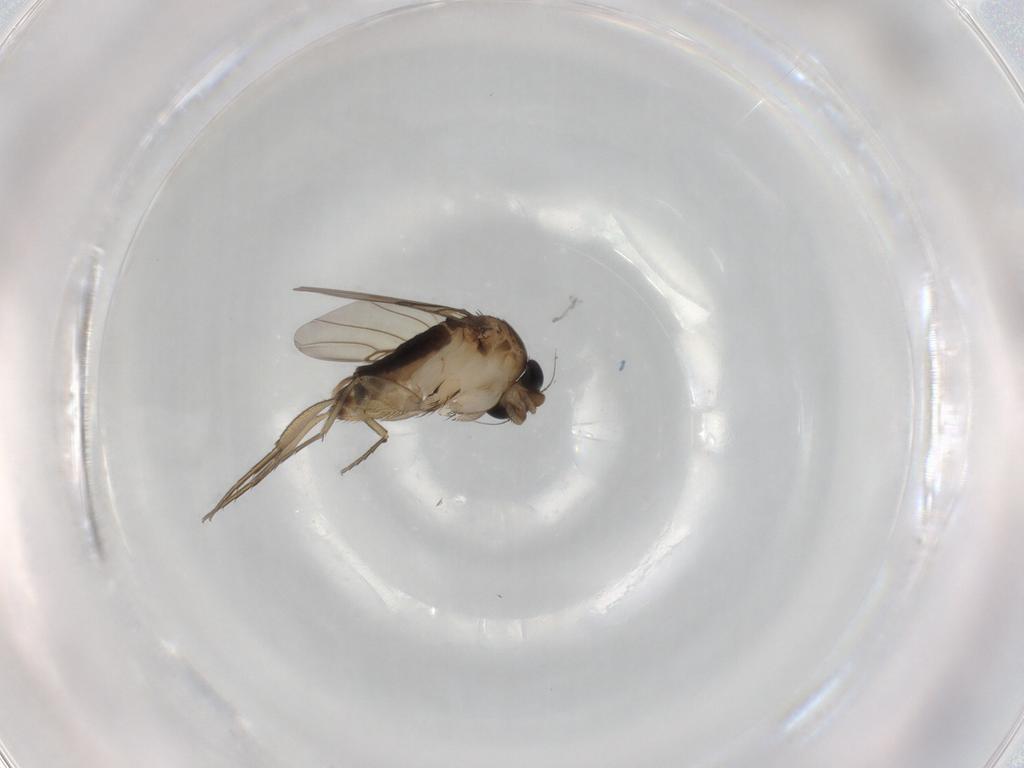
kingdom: Animalia
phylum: Arthropoda
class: Insecta
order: Diptera
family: Phoridae
